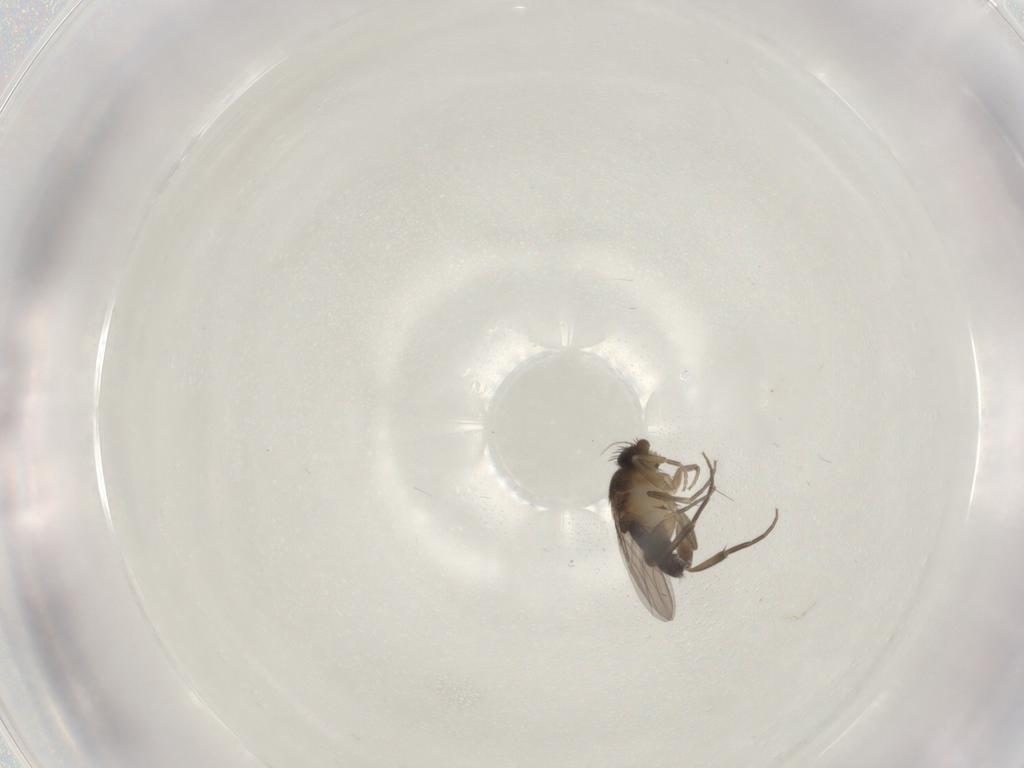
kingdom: Animalia
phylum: Arthropoda
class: Insecta
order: Diptera
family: Phoridae
